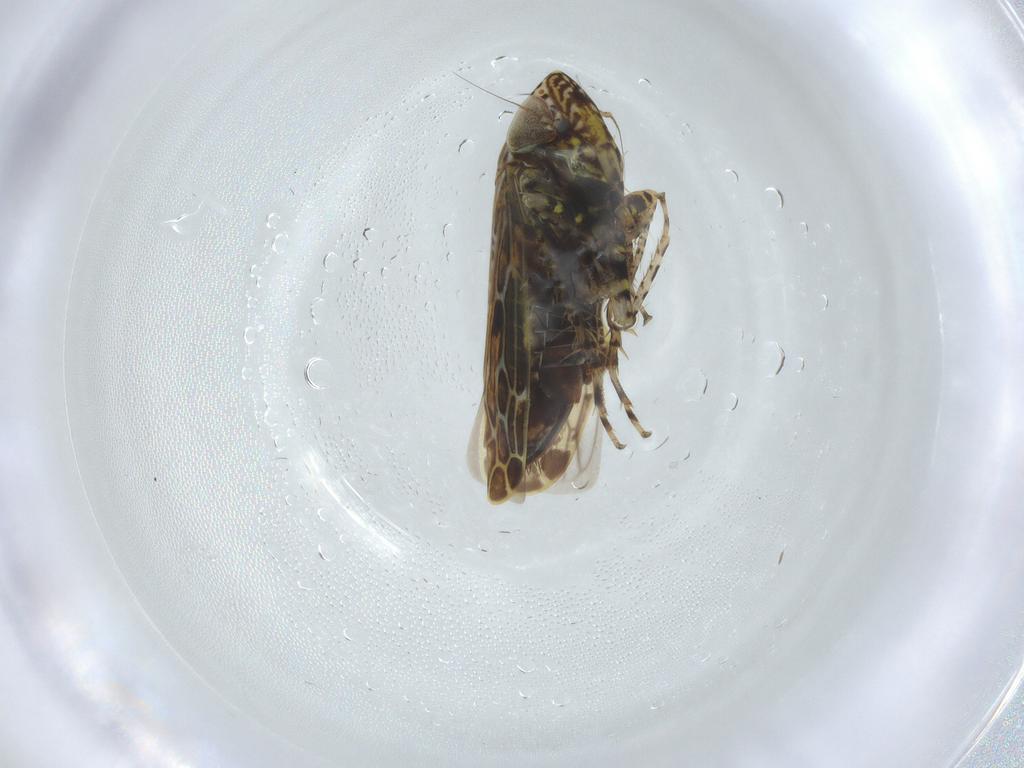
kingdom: Animalia
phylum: Arthropoda
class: Insecta
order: Hemiptera
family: Cicadellidae
